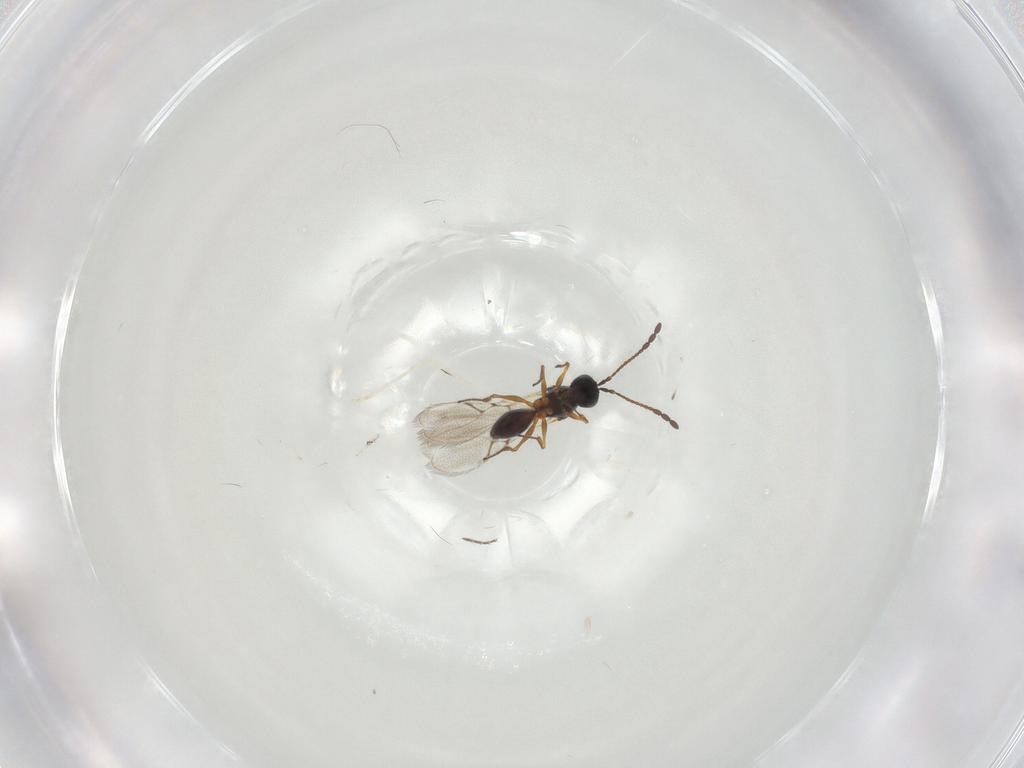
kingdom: Animalia
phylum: Arthropoda
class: Insecta
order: Hymenoptera
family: Figitidae
